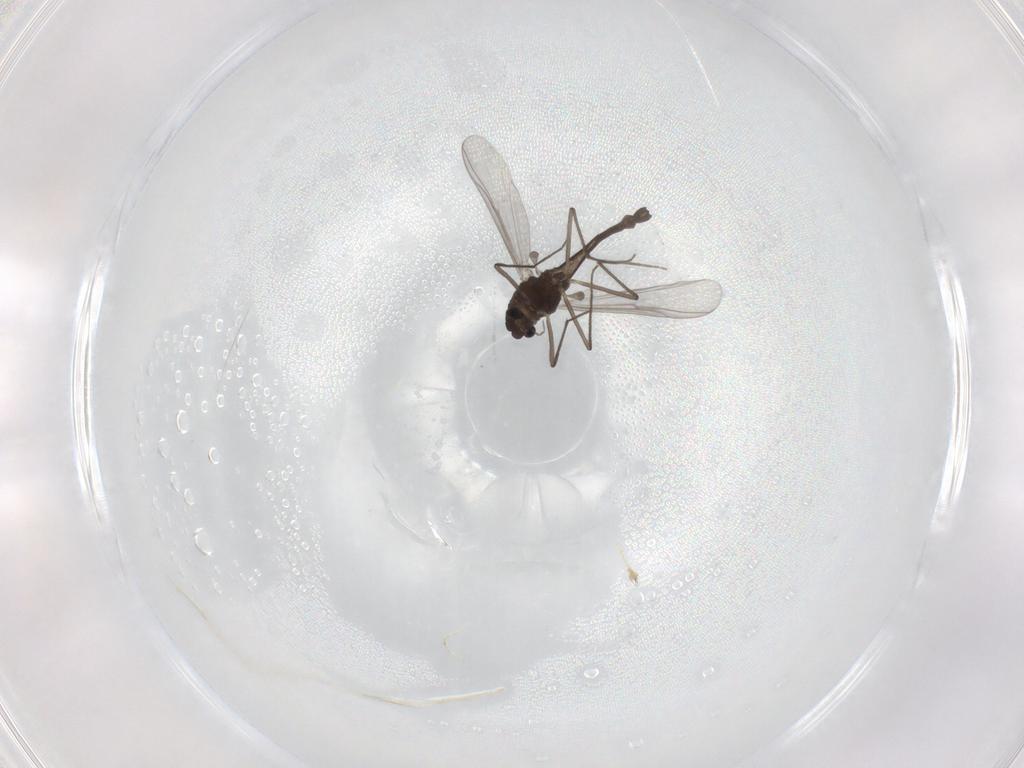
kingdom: Animalia
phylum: Arthropoda
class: Insecta
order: Diptera
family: Chironomidae
